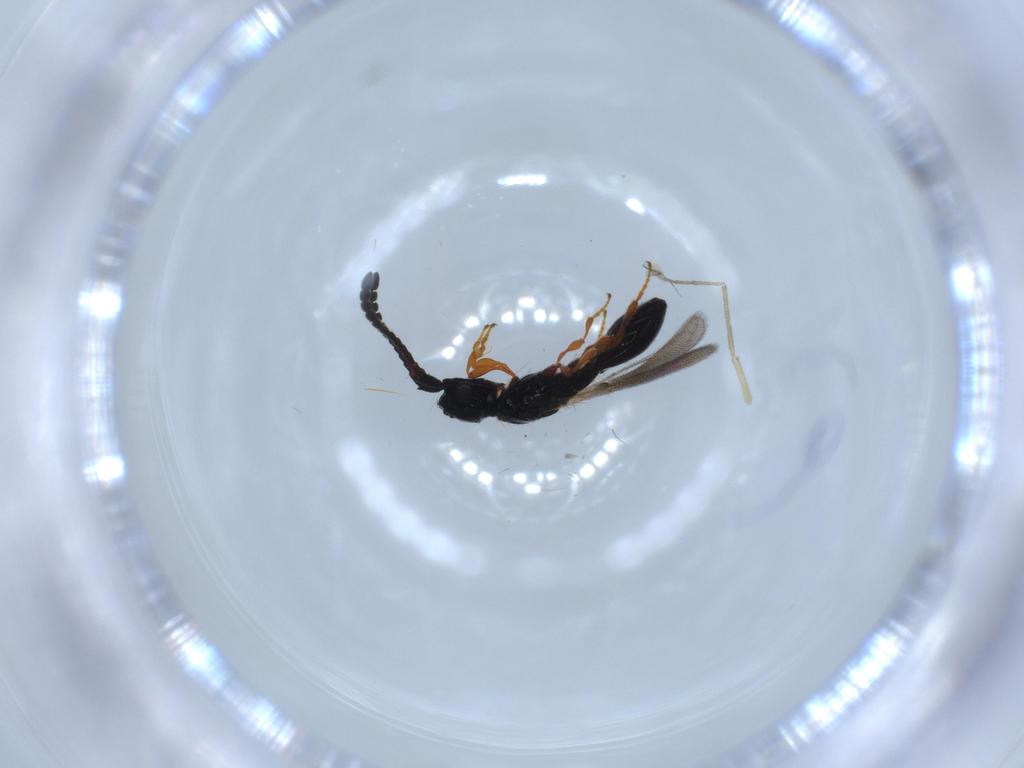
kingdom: Animalia
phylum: Arthropoda
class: Insecta
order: Hymenoptera
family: Diapriidae
